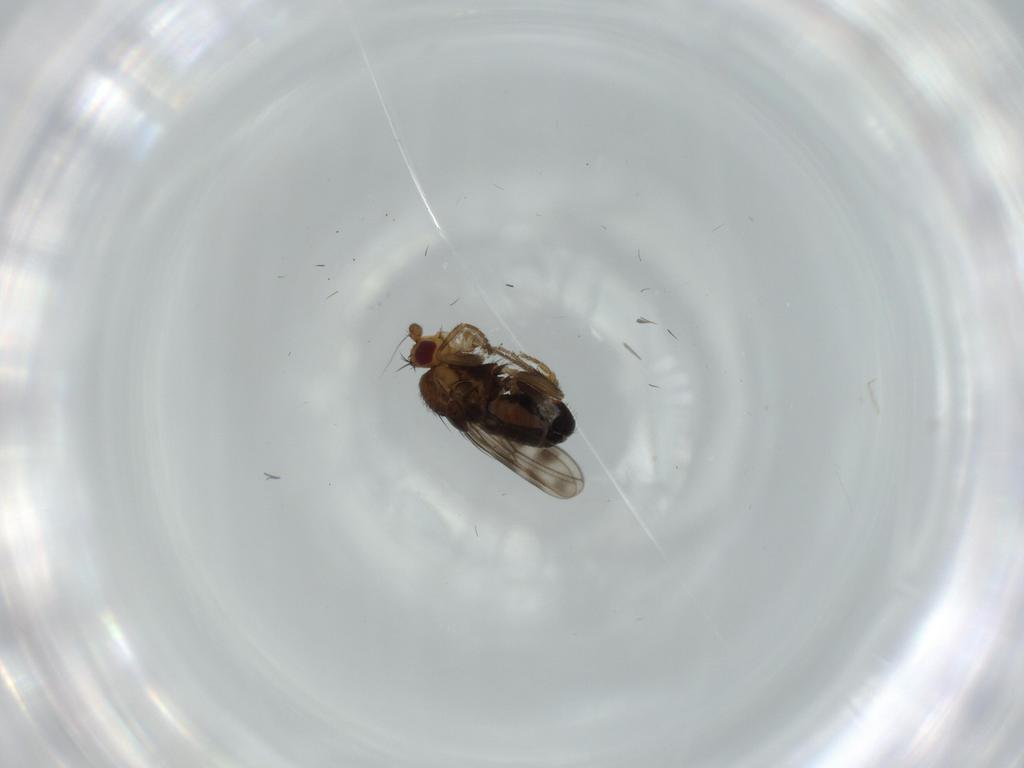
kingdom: Animalia
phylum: Arthropoda
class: Insecta
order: Diptera
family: Sphaeroceridae
